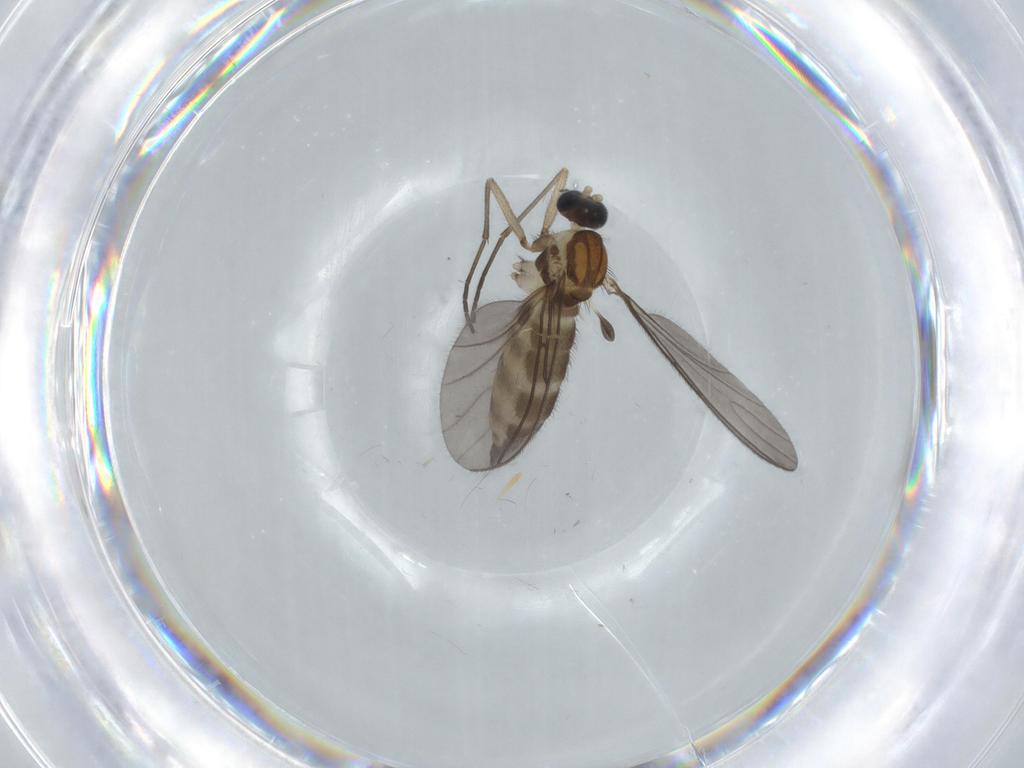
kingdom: Animalia
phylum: Arthropoda
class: Insecta
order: Diptera
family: Sciaridae
